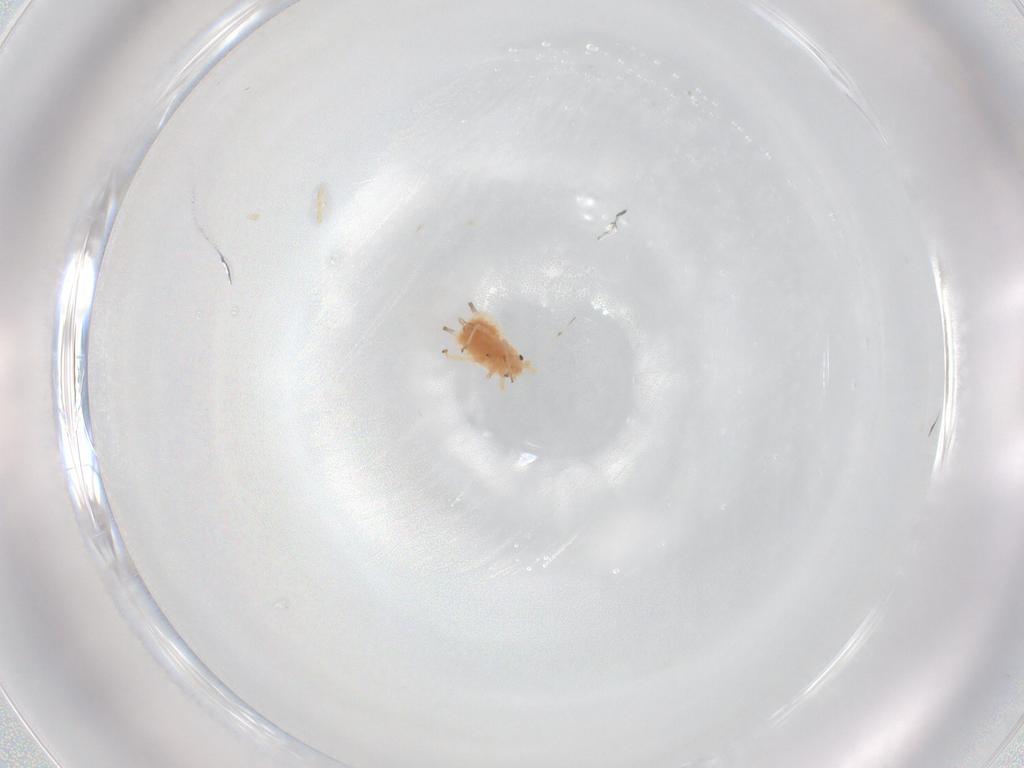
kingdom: Animalia
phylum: Arthropoda
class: Insecta
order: Hemiptera
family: Aphididae
